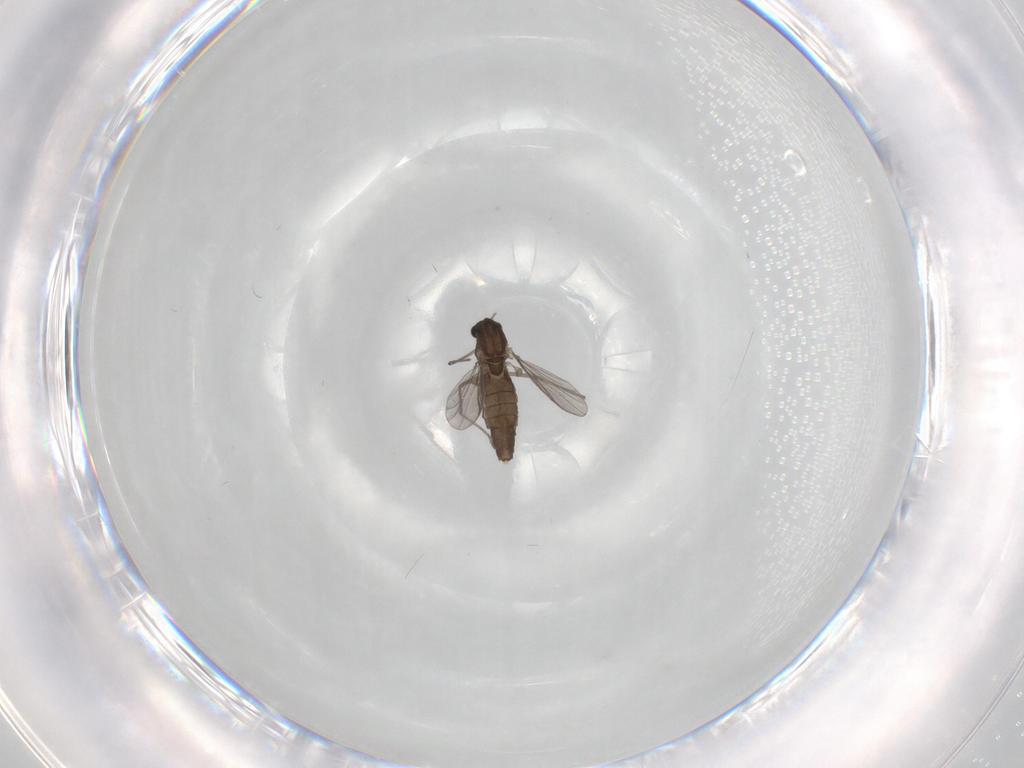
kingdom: Animalia
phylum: Arthropoda
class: Insecta
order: Diptera
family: Chironomidae
